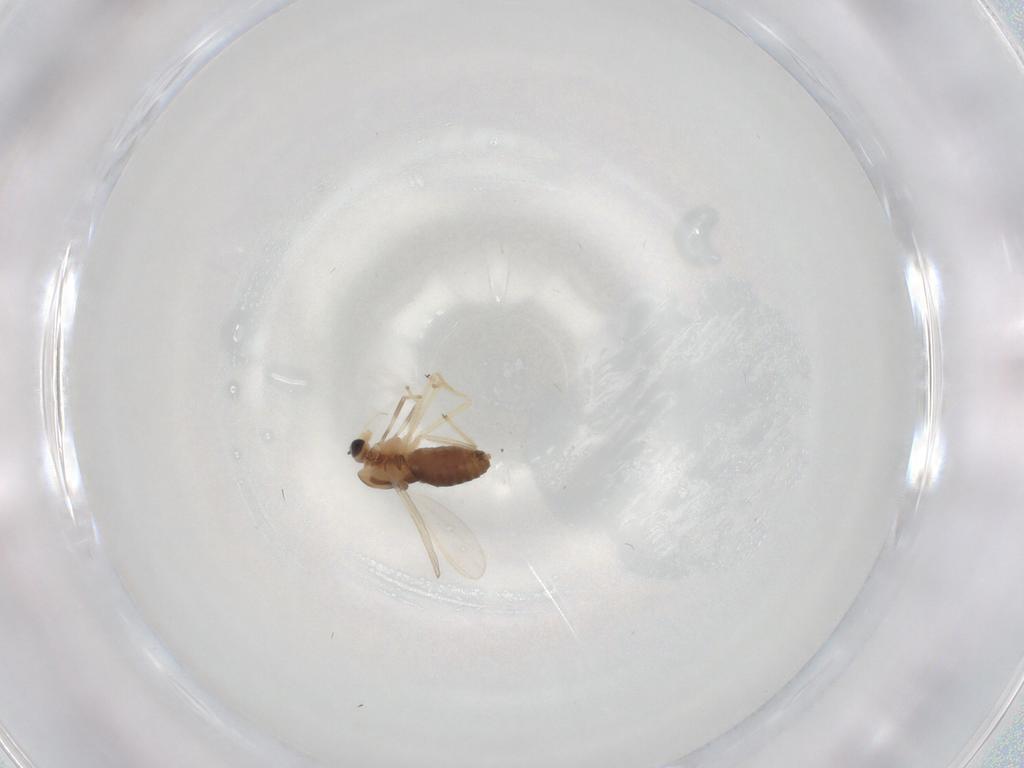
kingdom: Animalia
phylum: Arthropoda
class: Insecta
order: Diptera
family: Chironomidae
